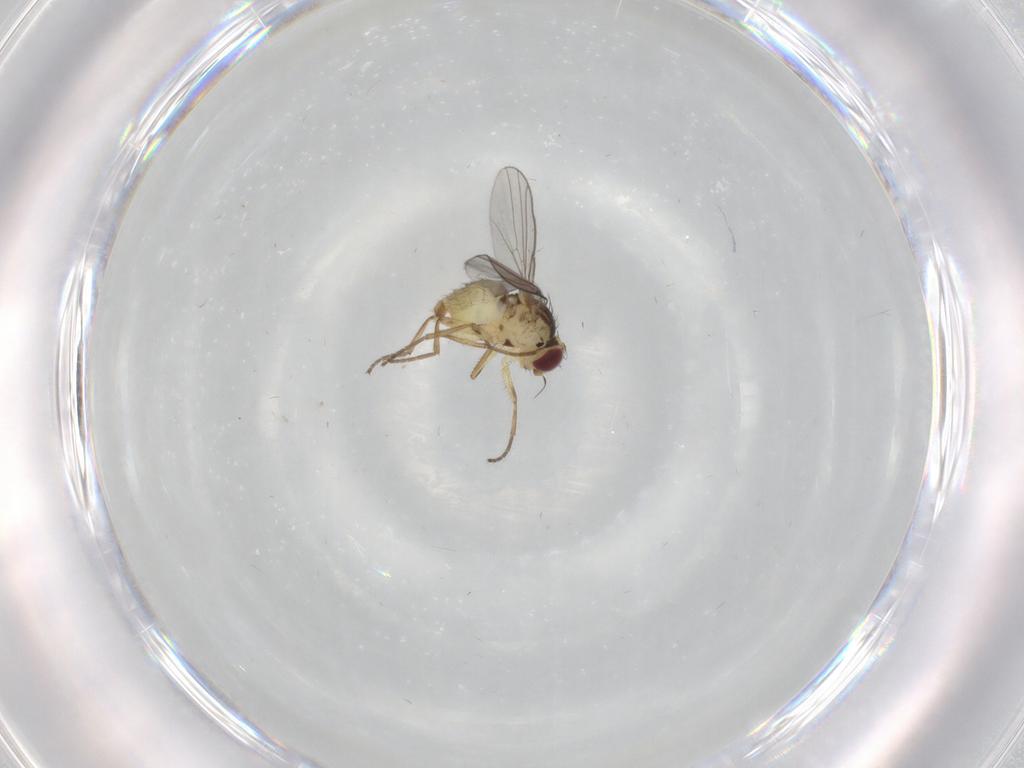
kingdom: Animalia
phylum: Arthropoda
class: Insecta
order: Diptera
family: Agromyzidae
